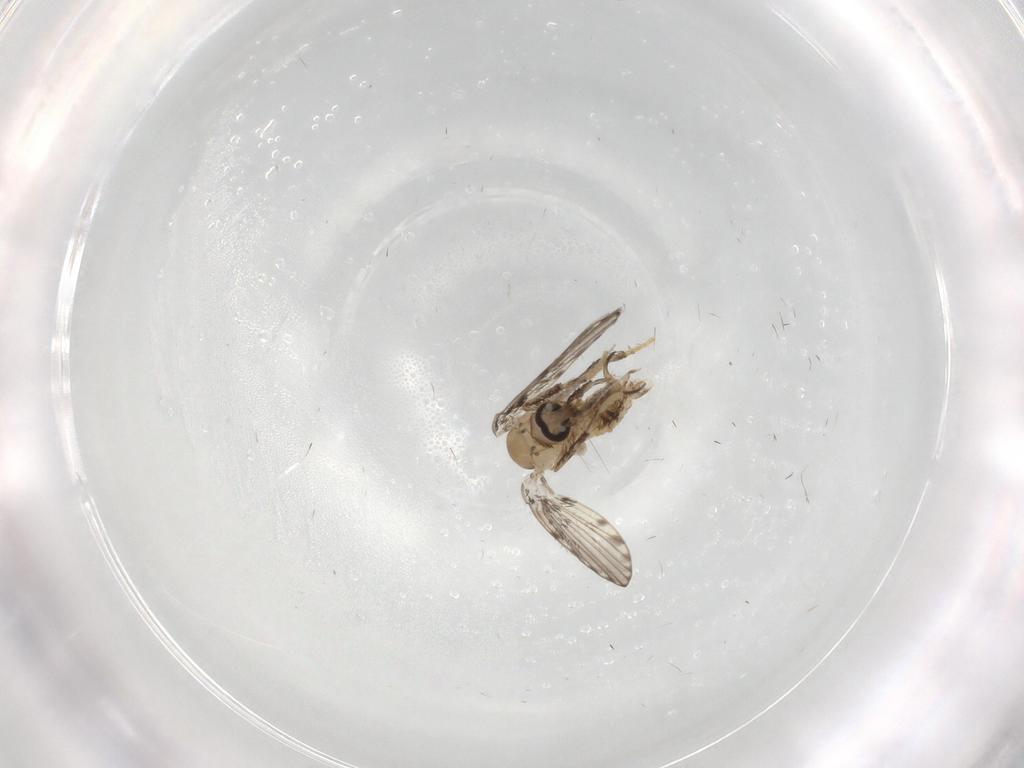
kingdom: Animalia
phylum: Arthropoda
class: Insecta
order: Diptera
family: Psychodidae
